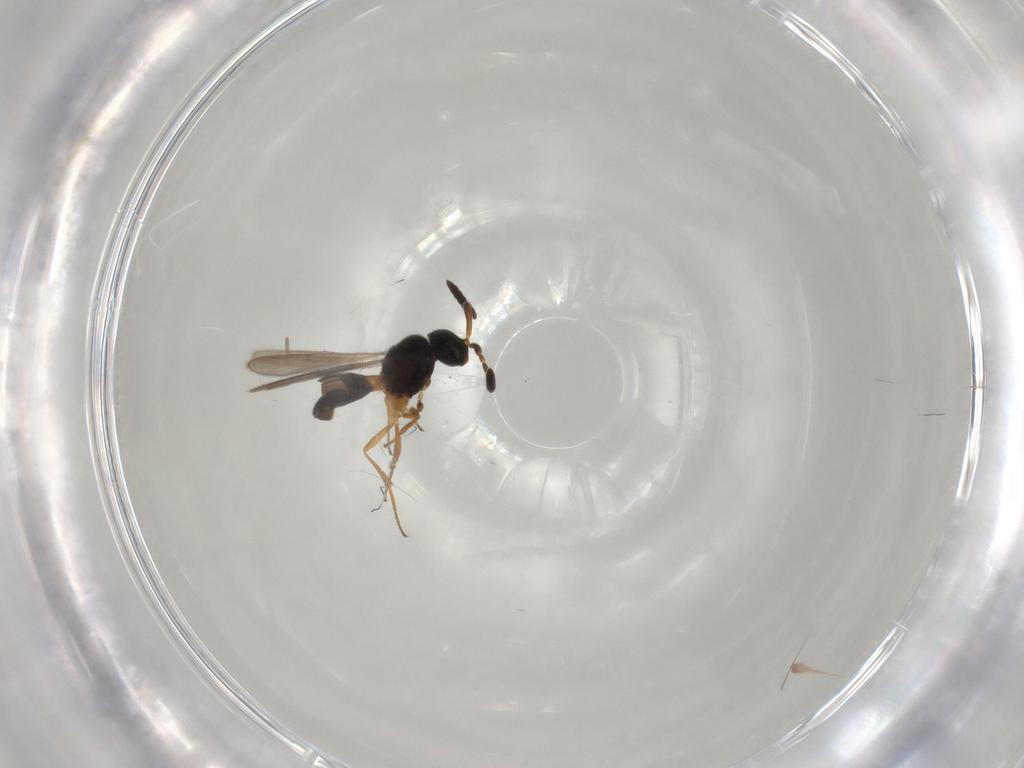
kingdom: Animalia
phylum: Arthropoda
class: Insecta
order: Hymenoptera
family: Scelionidae
